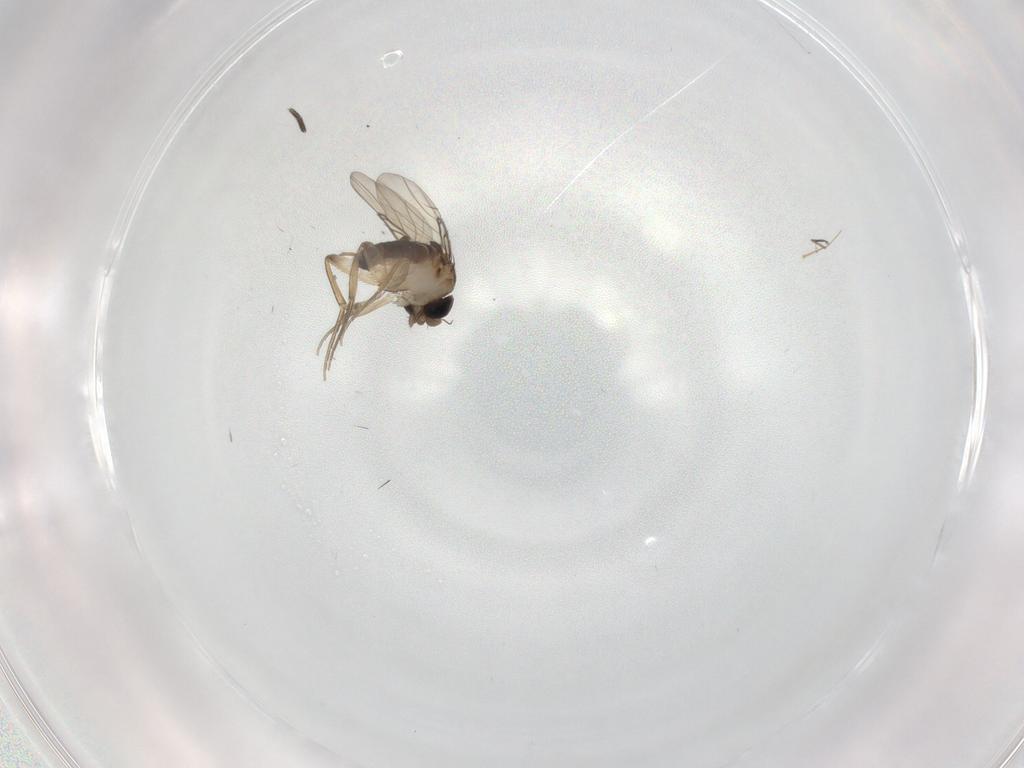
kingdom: Animalia
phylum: Arthropoda
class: Insecta
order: Diptera
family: Phoridae
